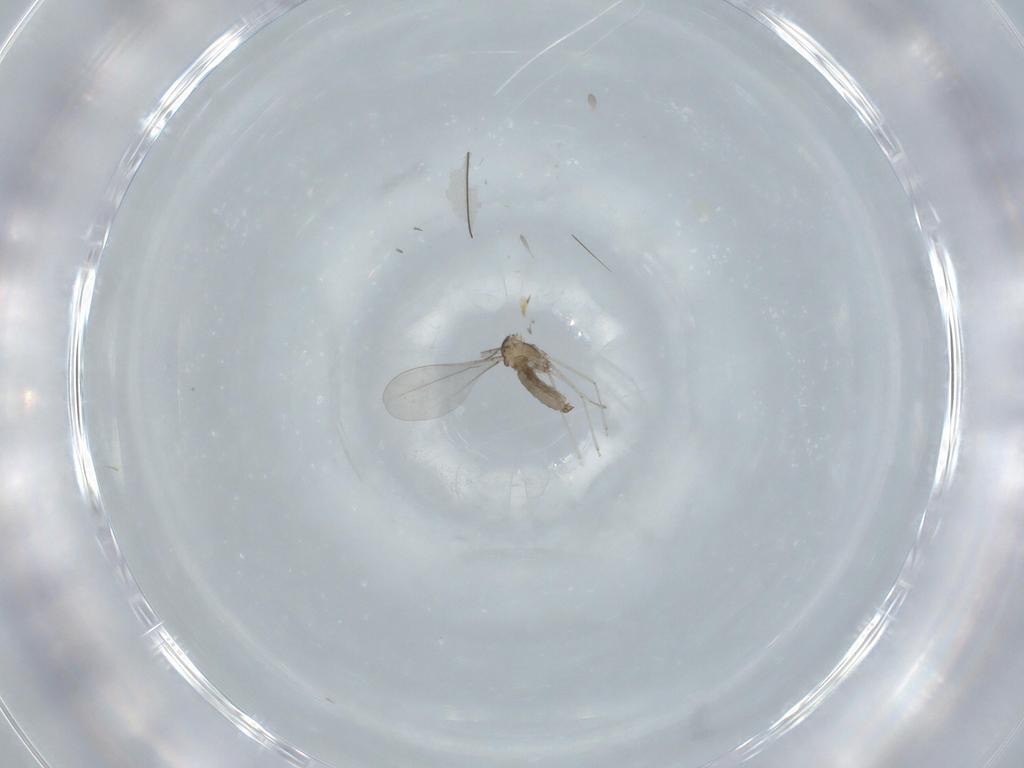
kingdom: Animalia
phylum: Arthropoda
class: Insecta
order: Diptera
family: Cecidomyiidae
